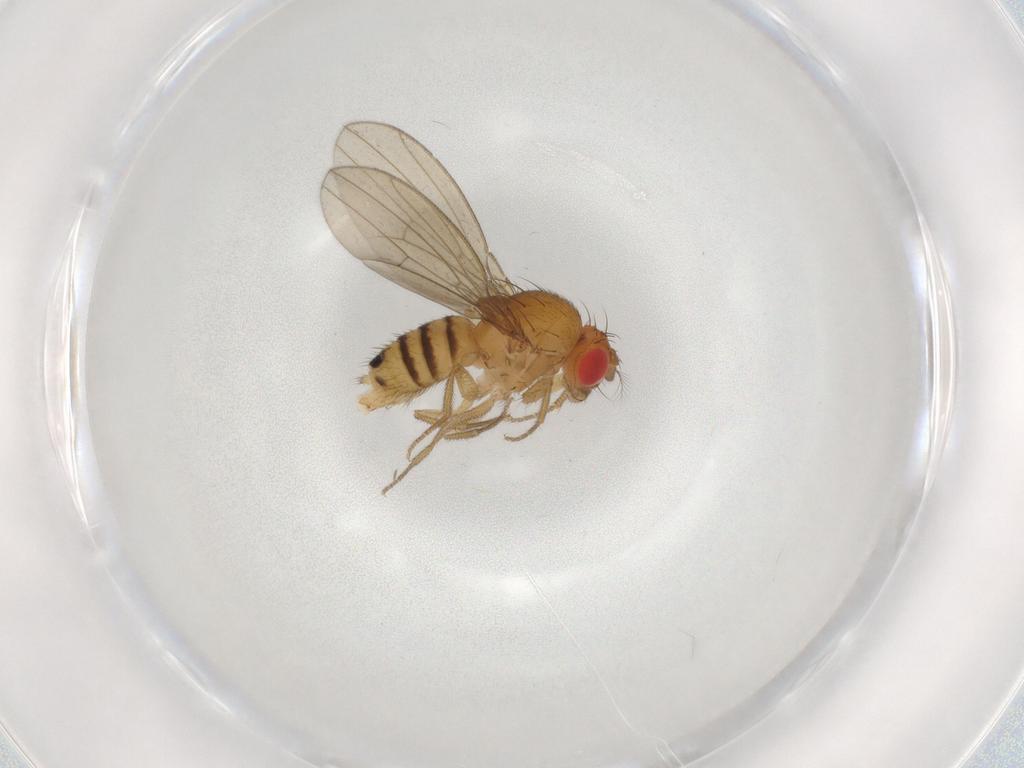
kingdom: Animalia
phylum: Arthropoda
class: Insecta
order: Diptera
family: Drosophilidae
